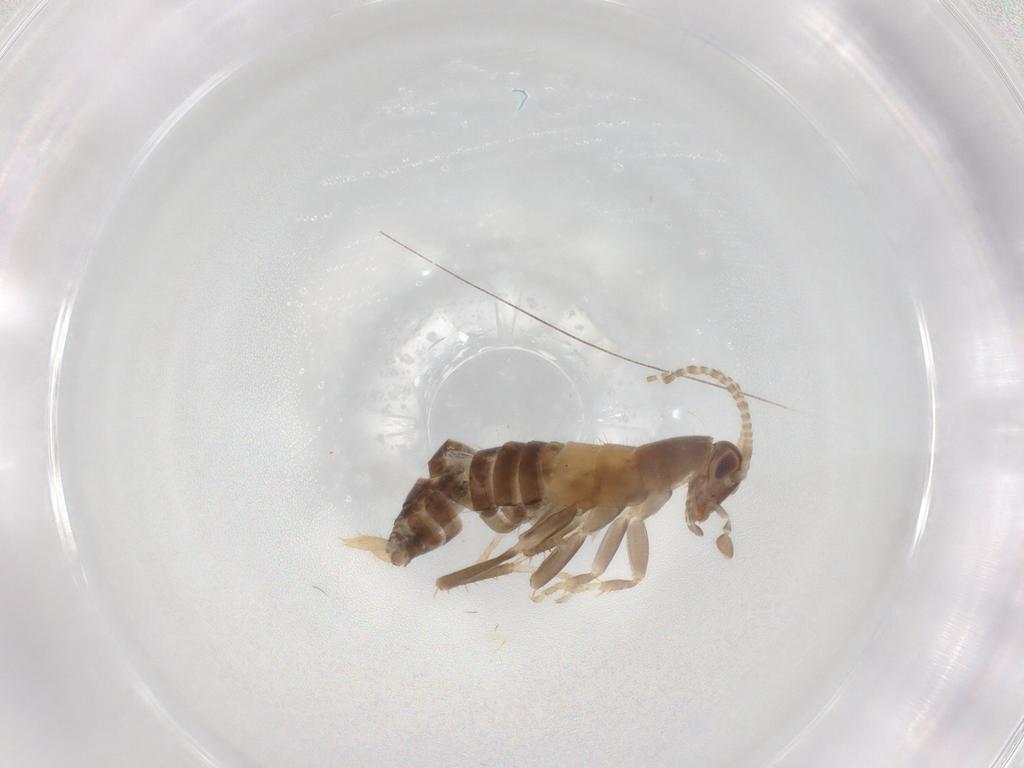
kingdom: Animalia
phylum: Arthropoda
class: Insecta
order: Blattodea
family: Ectobiidae
